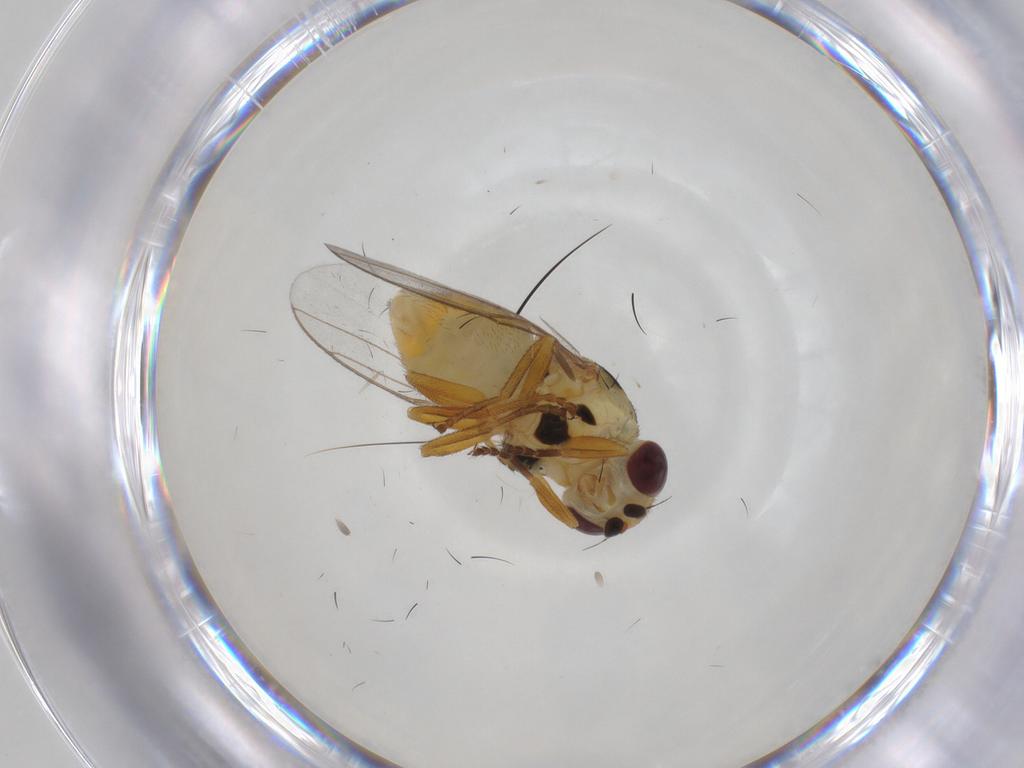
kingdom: Animalia
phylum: Arthropoda
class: Insecta
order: Diptera
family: Chloropidae
